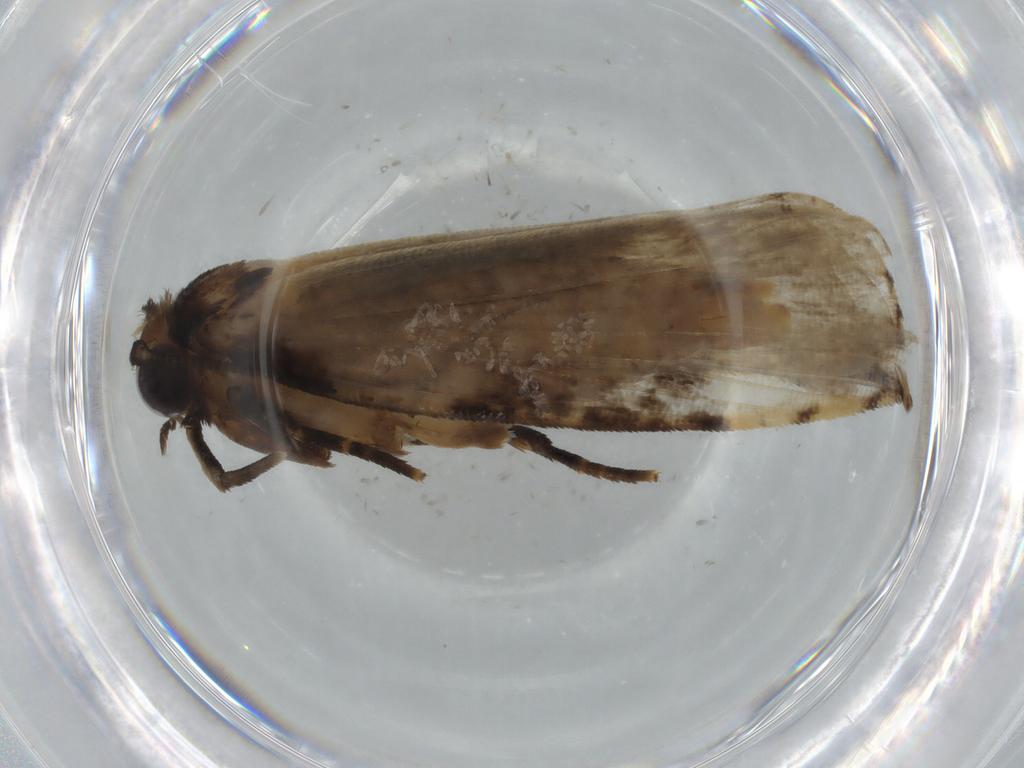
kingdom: Animalia
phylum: Arthropoda
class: Insecta
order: Lepidoptera
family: Tineidae
